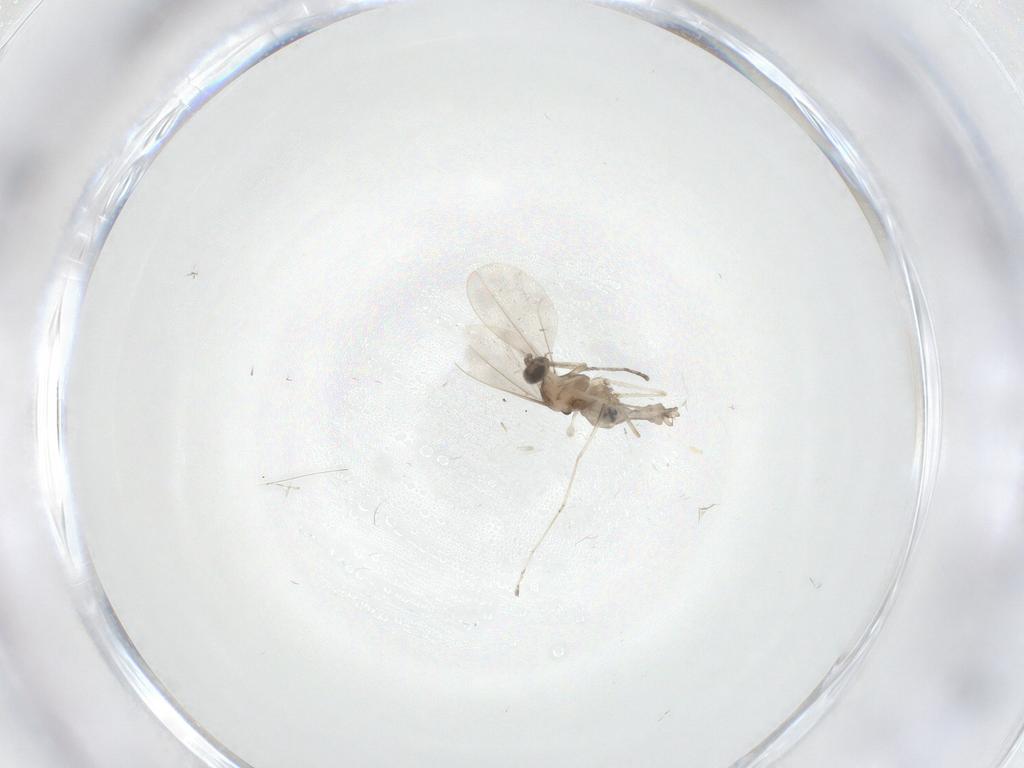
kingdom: Animalia
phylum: Arthropoda
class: Insecta
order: Diptera
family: Cecidomyiidae
